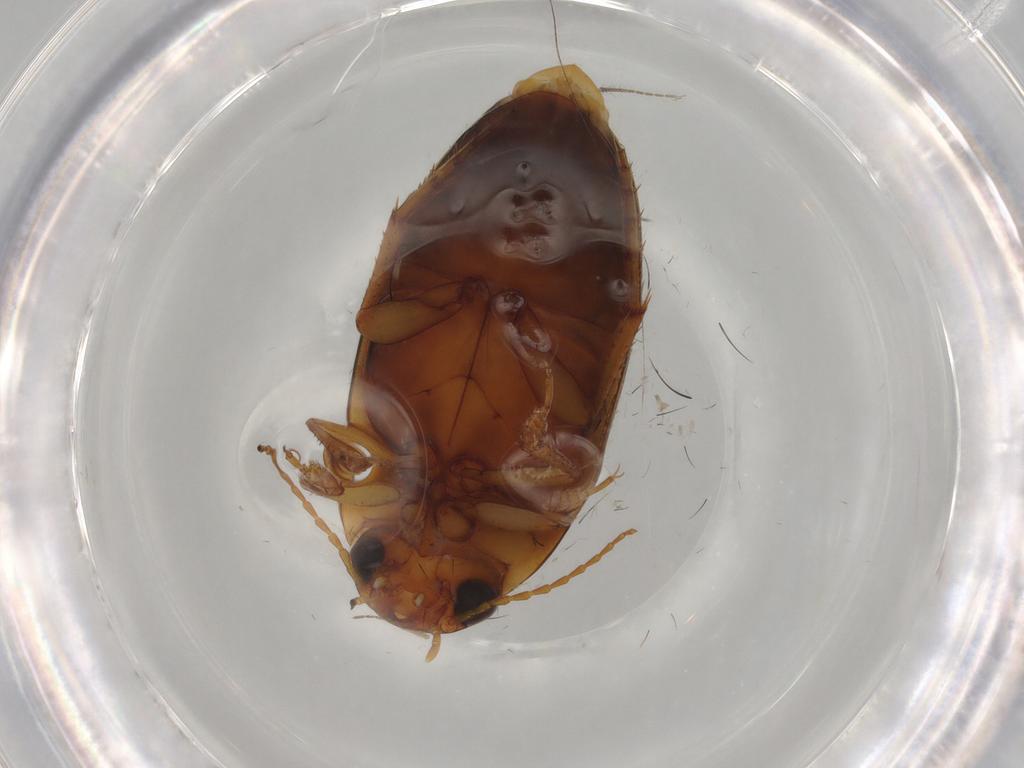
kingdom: Animalia
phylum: Arthropoda
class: Insecta
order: Coleoptera
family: Dytiscidae
